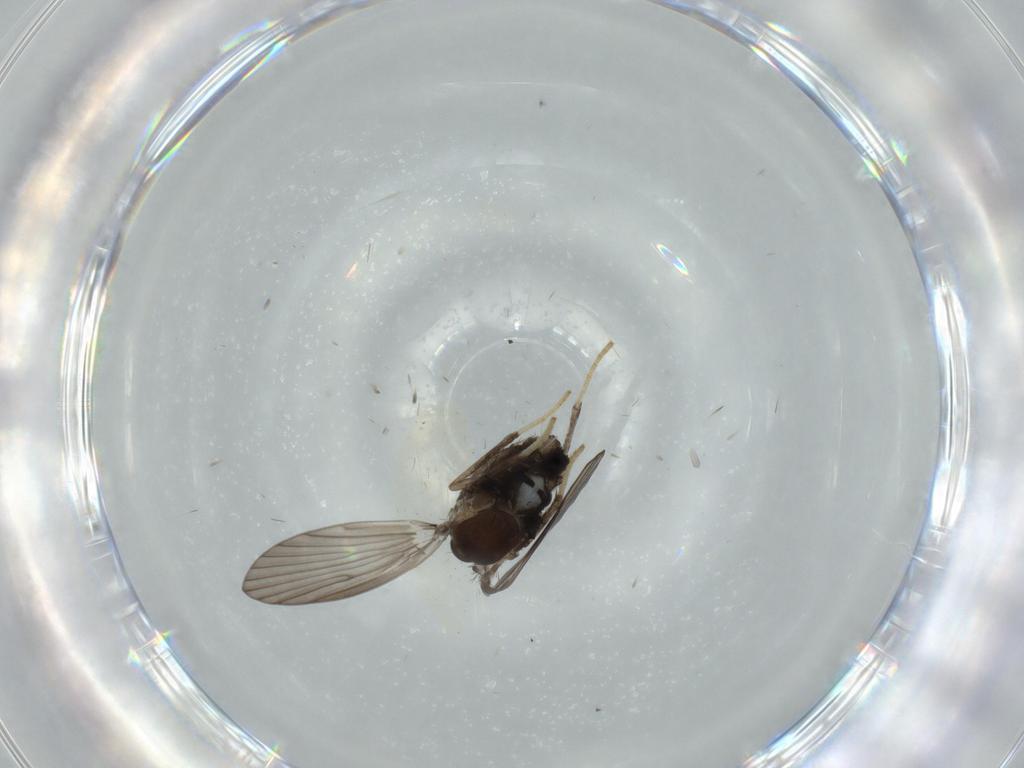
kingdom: Animalia
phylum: Arthropoda
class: Insecta
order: Diptera
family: Psychodidae
